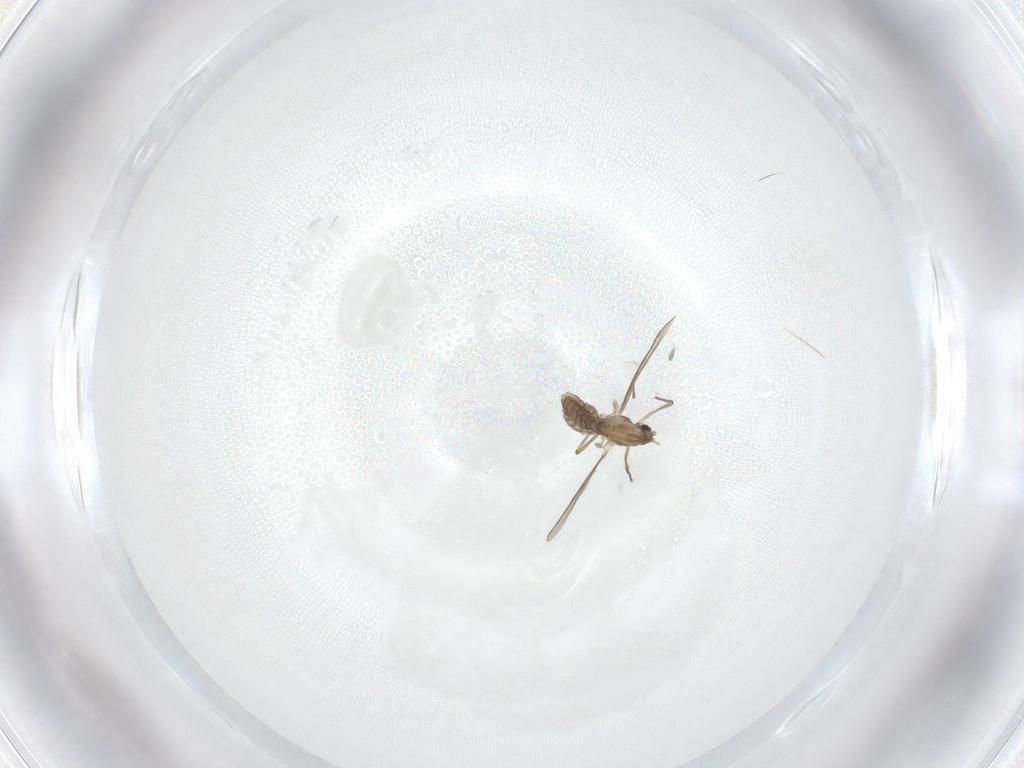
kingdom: Animalia
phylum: Arthropoda
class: Insecta
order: Diptera
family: Chironomidae
